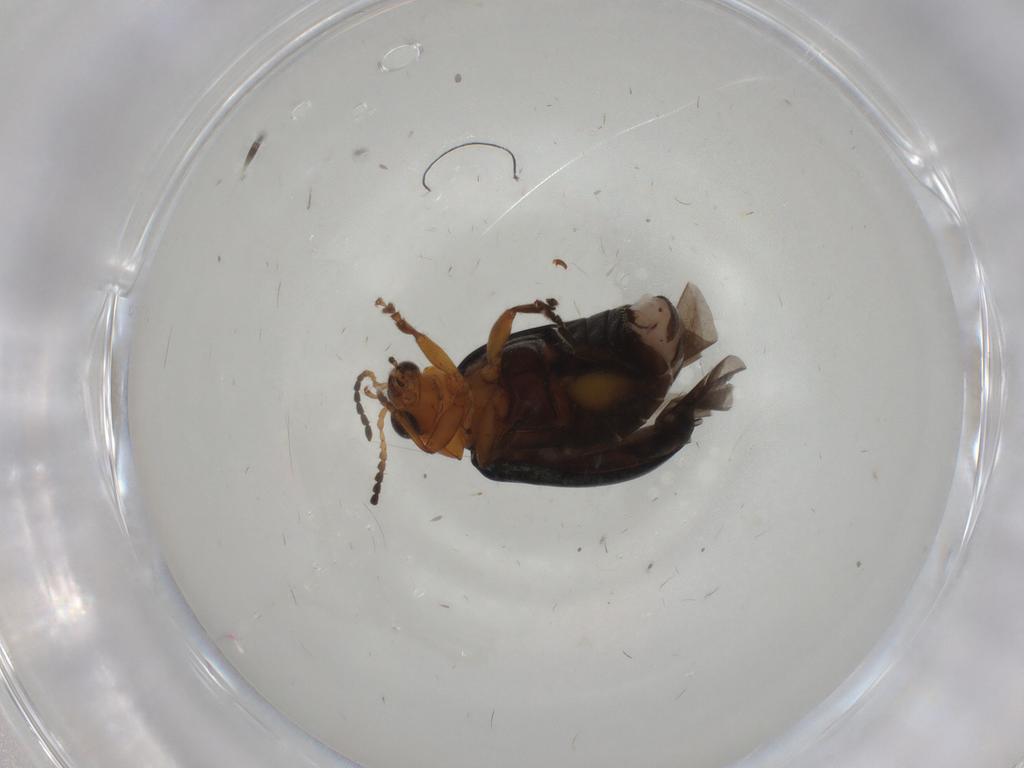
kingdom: Animalia
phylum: Arthropoda
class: Insecta
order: Coleoptera
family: Chrysomelidae
